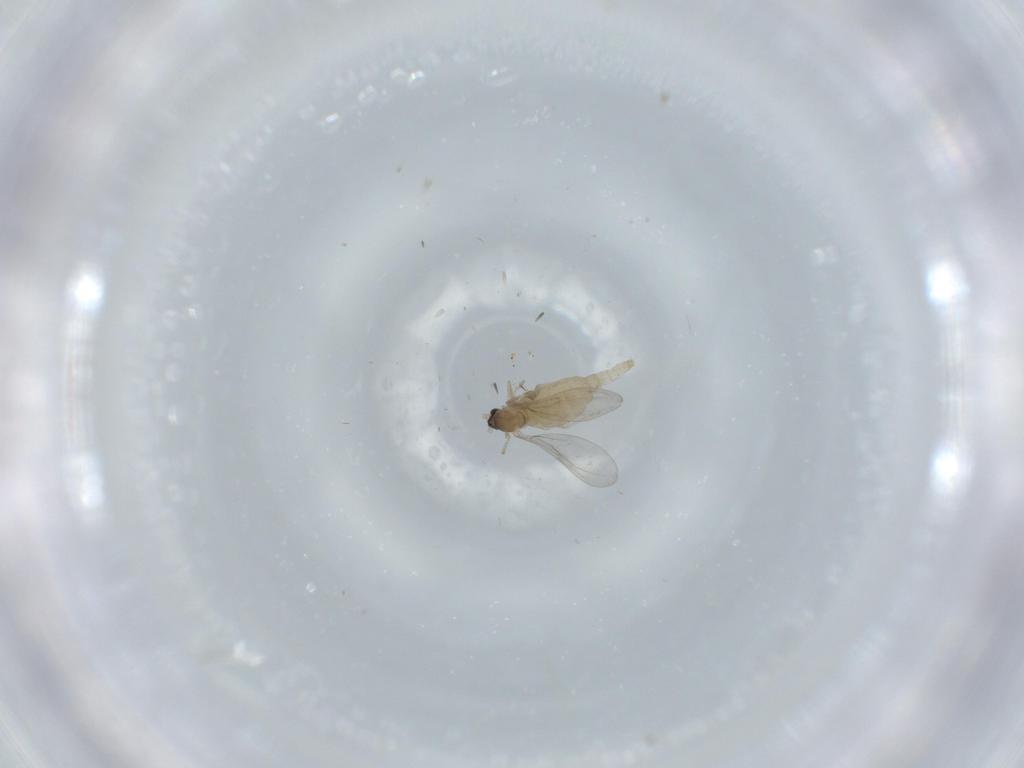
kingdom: Animalia
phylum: Arthropoda
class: Insecta
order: Diptera
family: Cecidomyiidae
